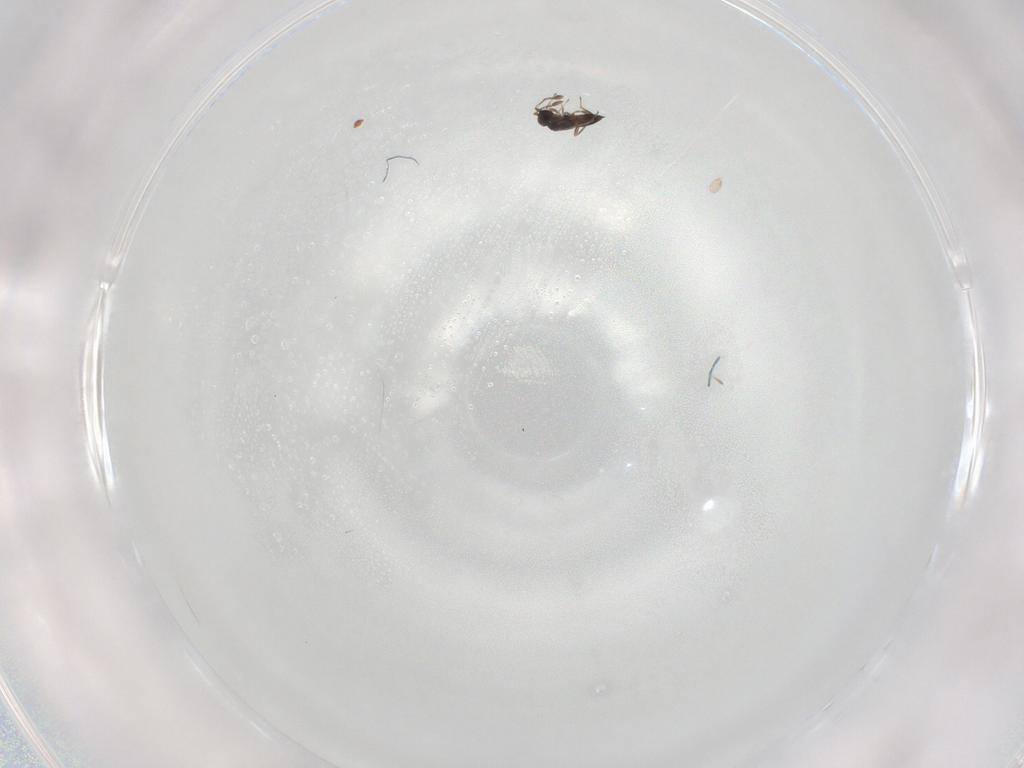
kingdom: Animalia
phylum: Arthropoda
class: Insecta
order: Hymenoptera
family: Mymaridae
